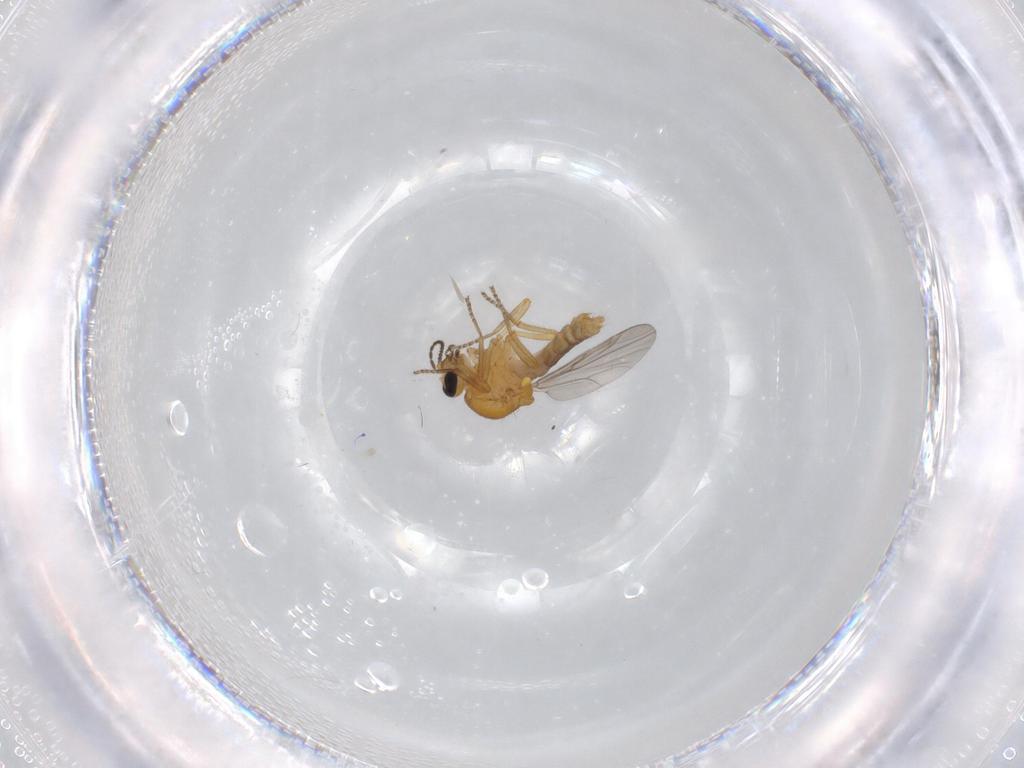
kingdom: Animalia
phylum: Arthropoda
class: Insecta
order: Diptera
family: Ceratopogonidae
